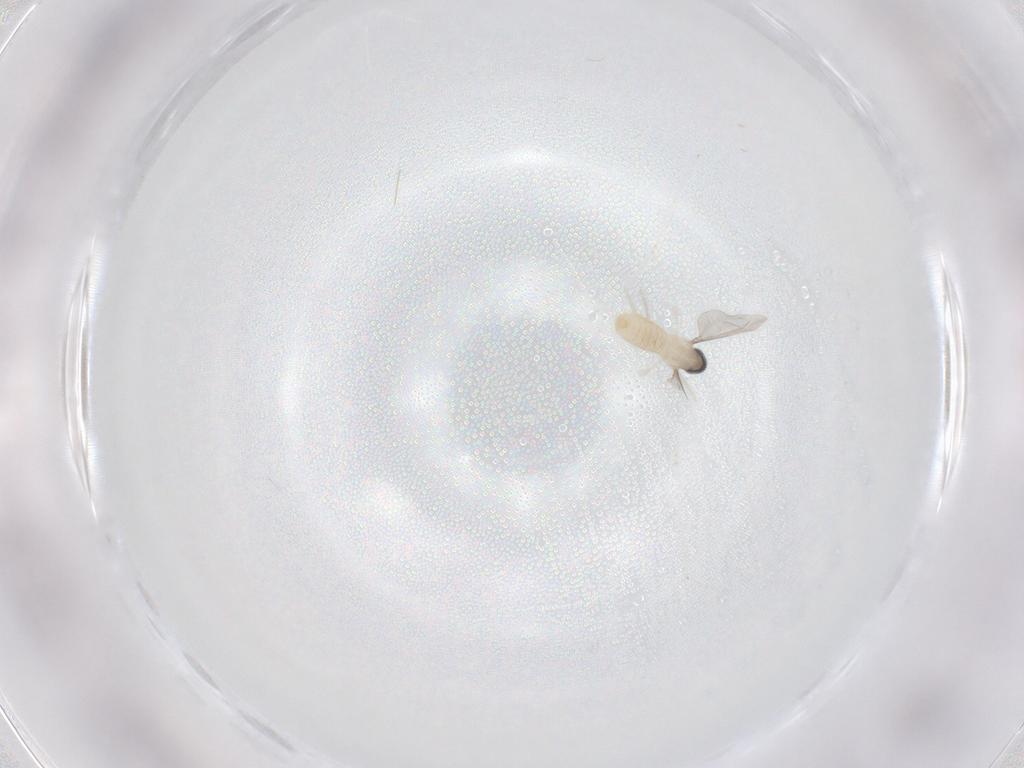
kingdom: Animalia
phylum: Arthropoda
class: Insecta
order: Diptera
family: Cecidomyiidae
